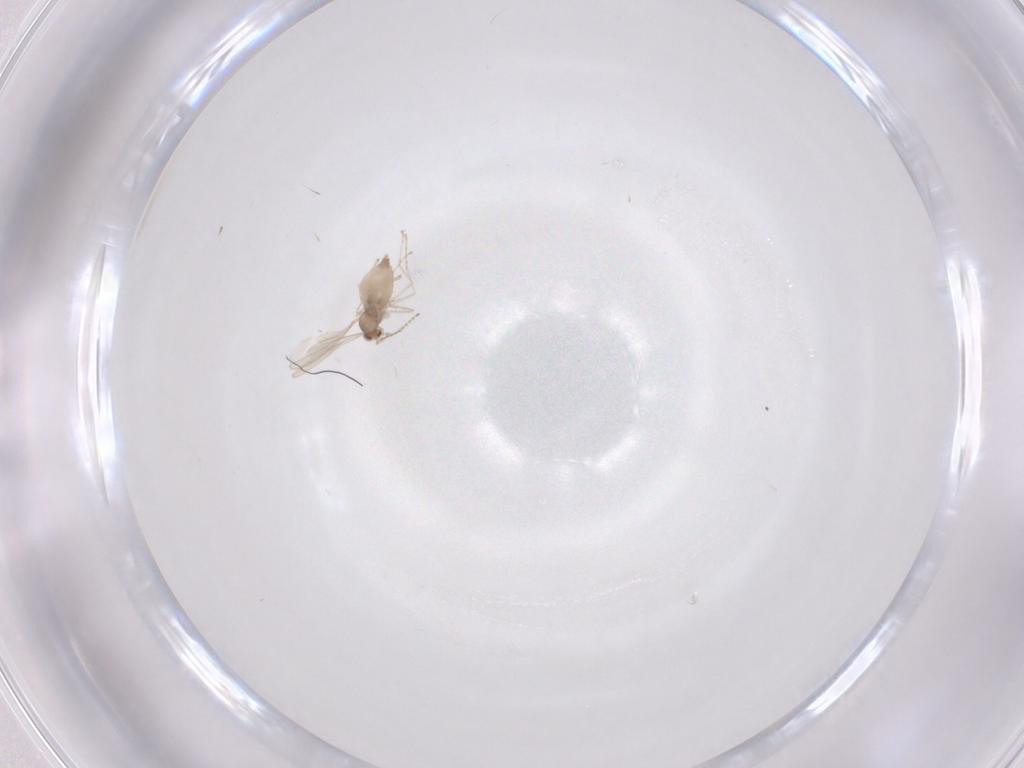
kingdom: Animalia
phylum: Arthropoda
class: Insecta
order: Diptera
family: Cecidomyiidae
